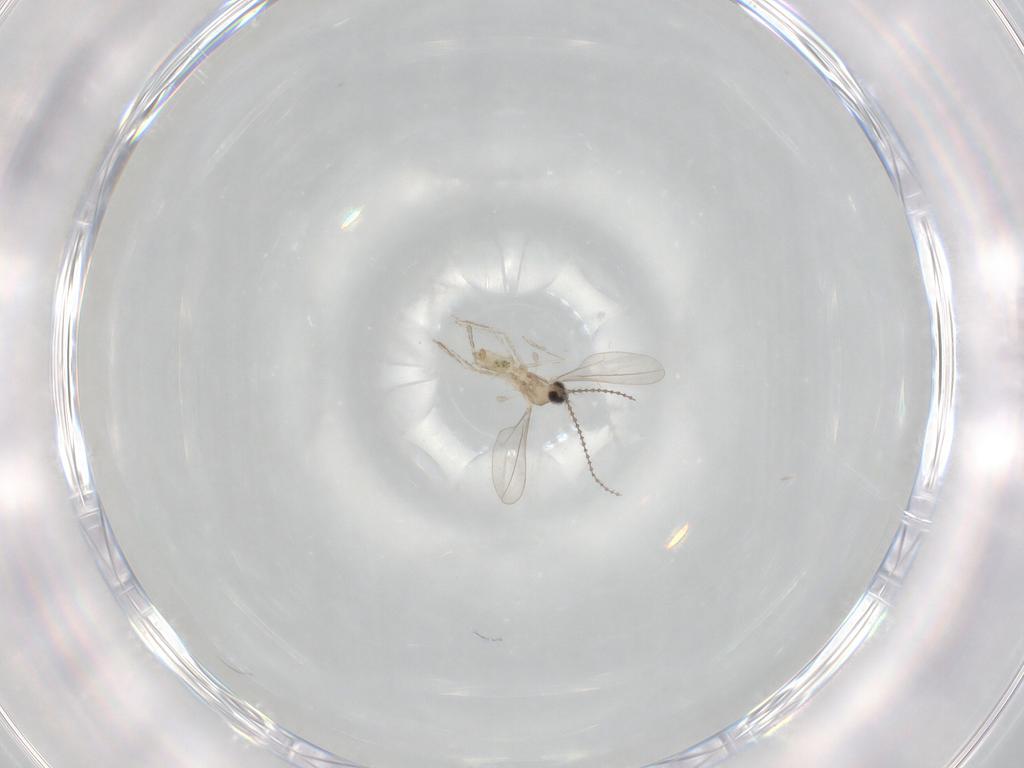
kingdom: Animalia
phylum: Arthropoda
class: Insecta
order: Diptera
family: Cecidomyiidae
